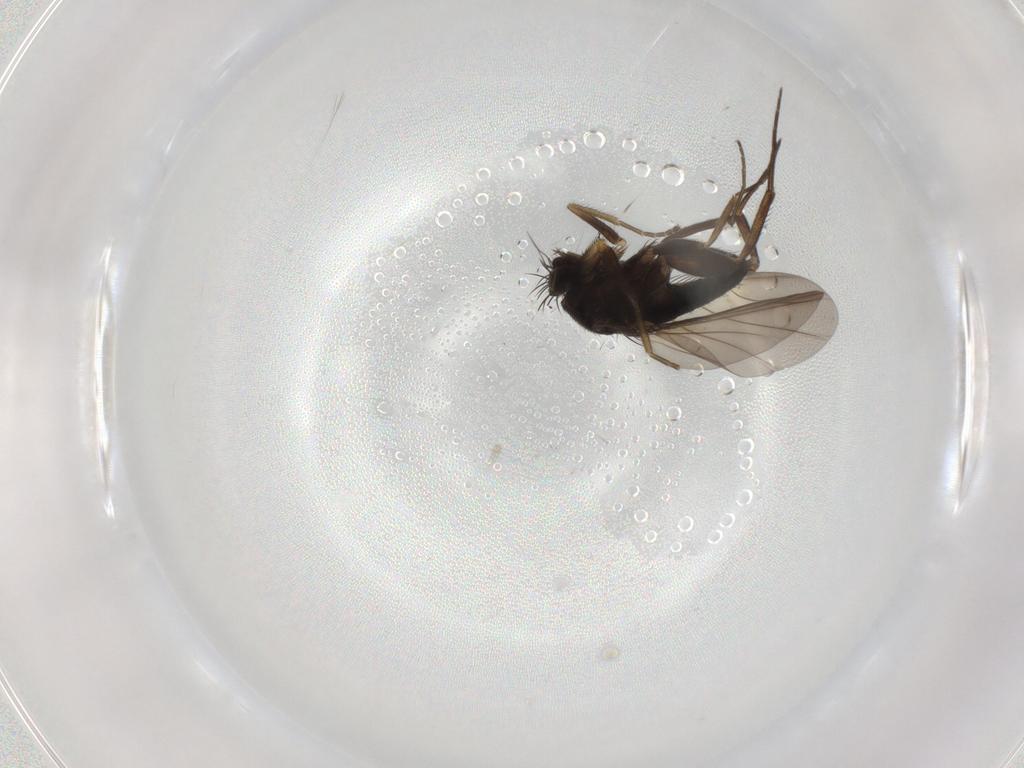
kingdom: Animalia
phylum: Arthropoda
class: Insecta
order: Diptera
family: Phoridae
